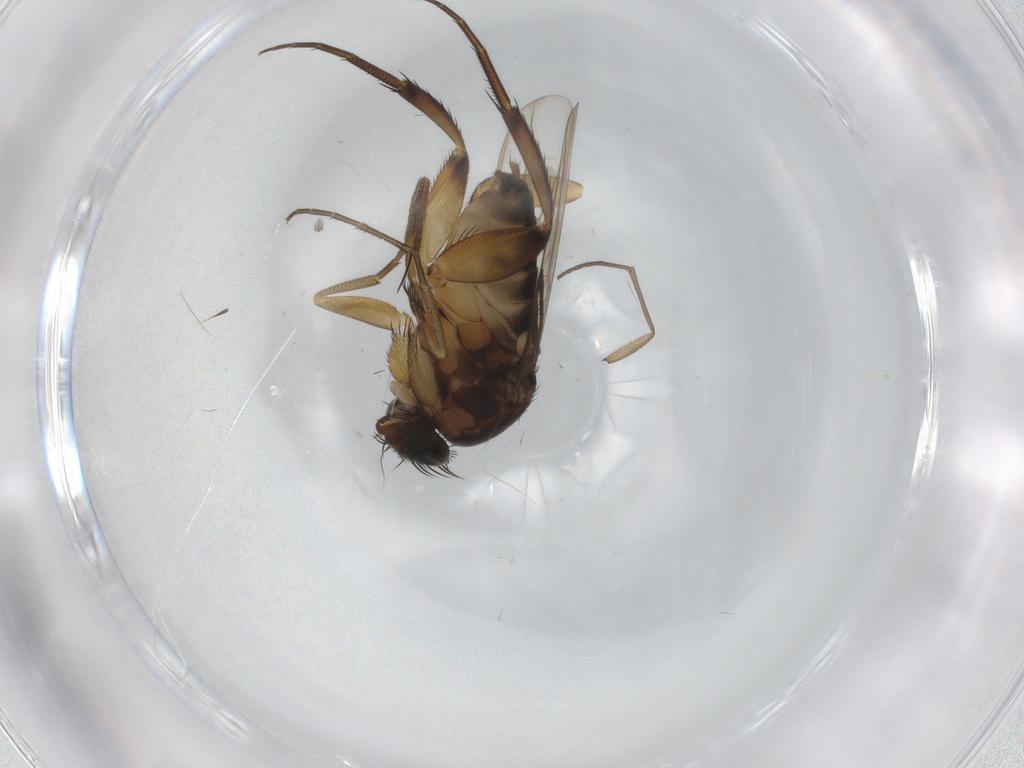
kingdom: Animalia
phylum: Arthropoda
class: Insecta
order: Diptera
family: Phoridae
